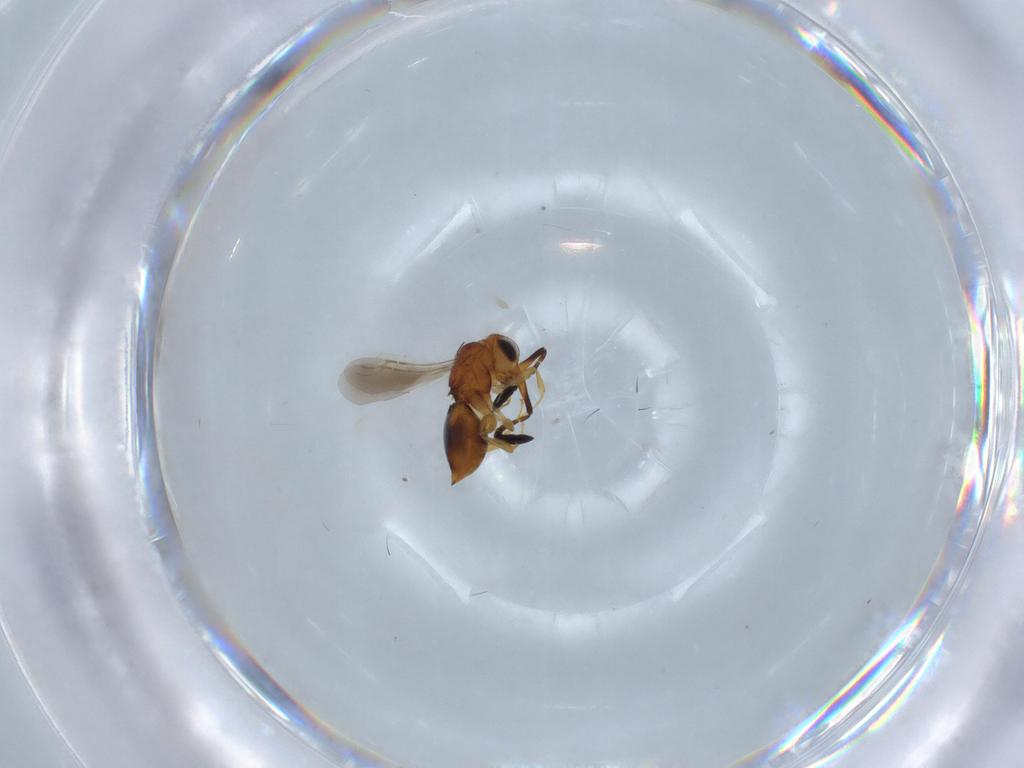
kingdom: Animalia
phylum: Arthropoda
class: Insecta
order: Hymenoptera
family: Ceraphronidae
